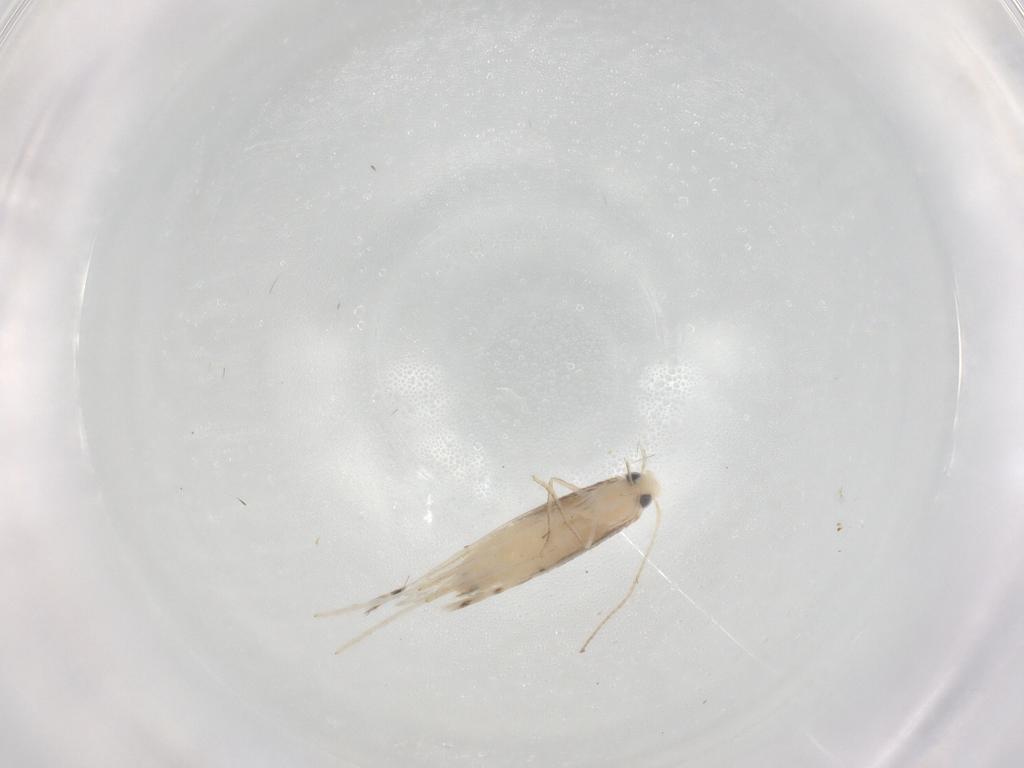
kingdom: Animalia
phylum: Arthropoda
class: Insecta
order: Lepidoptera
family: Gracillariidae
